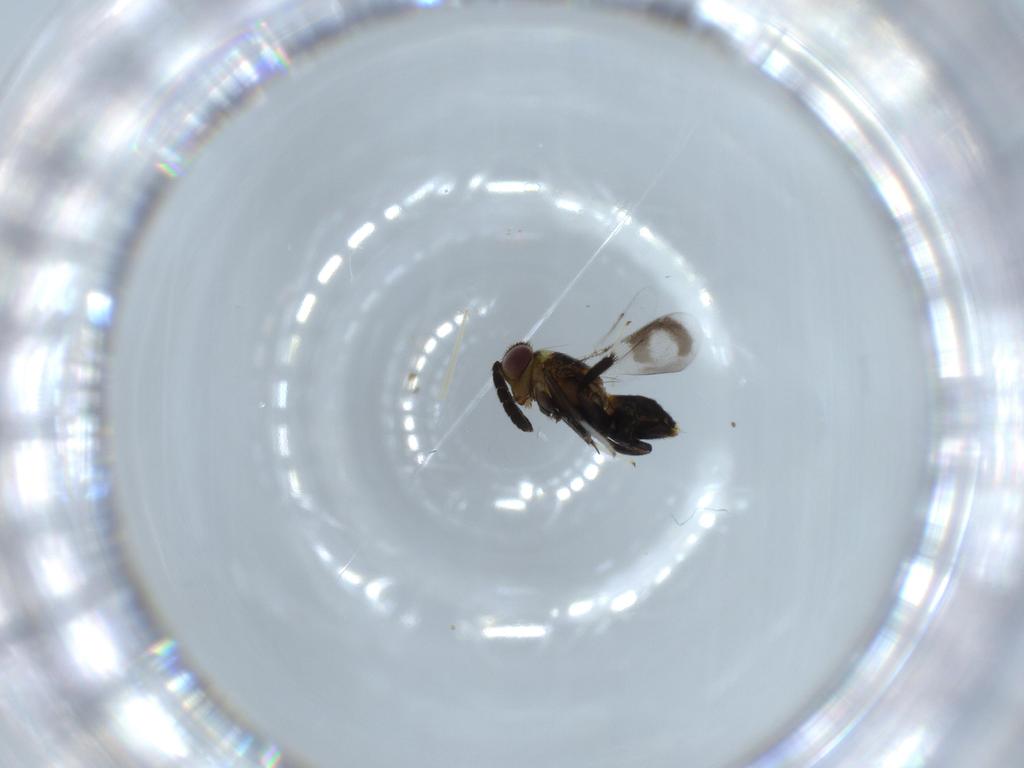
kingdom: Animalia
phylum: Arthropoda
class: Insecta
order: Hymenoptera
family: Aphelinidae
